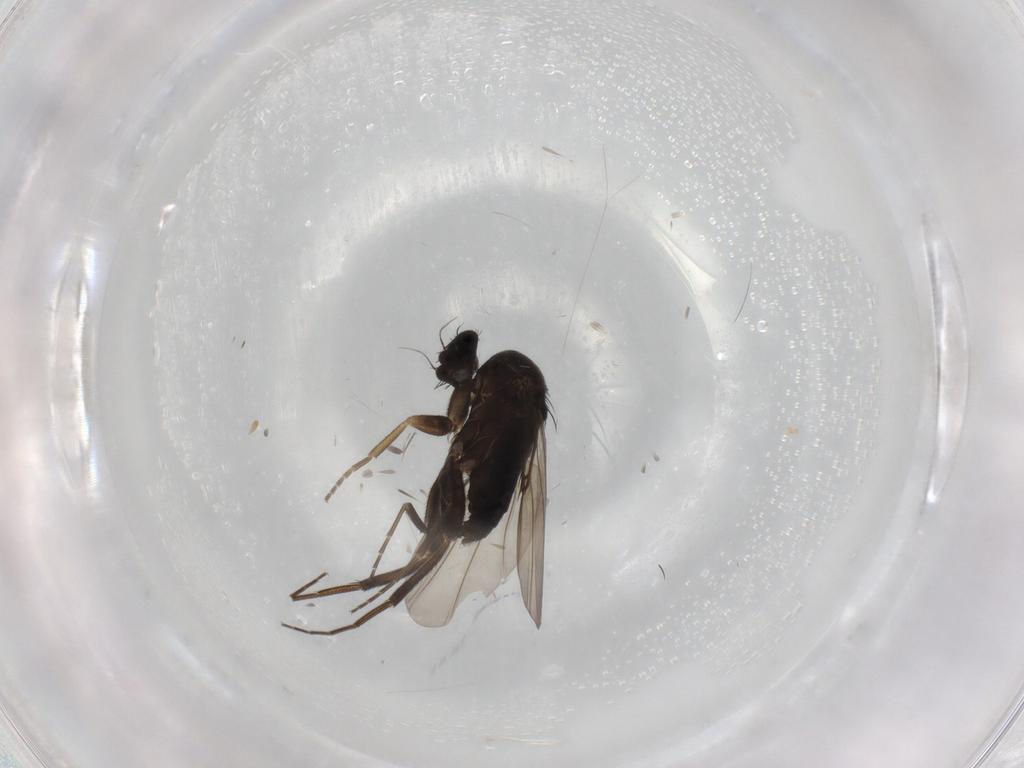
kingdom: Animalia
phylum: Arthropoda
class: Insecta
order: Diptera
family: Phoridae
